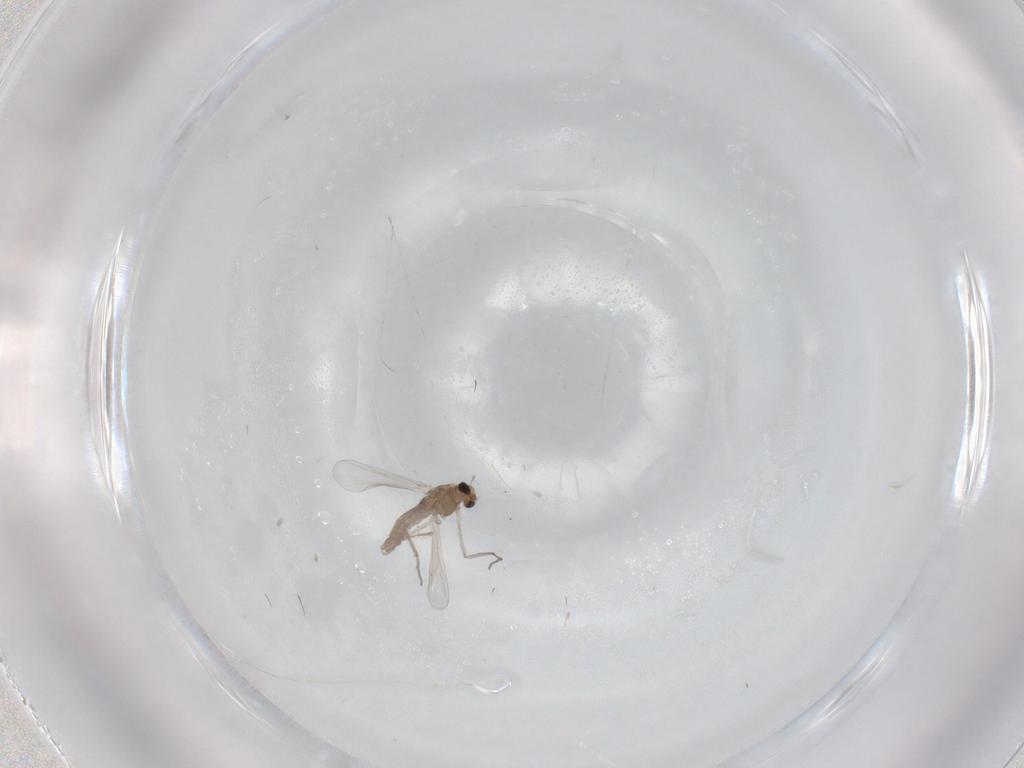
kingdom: Animalia
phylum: Arthropoda
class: Insecta
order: Diptera
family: Chironomidae
